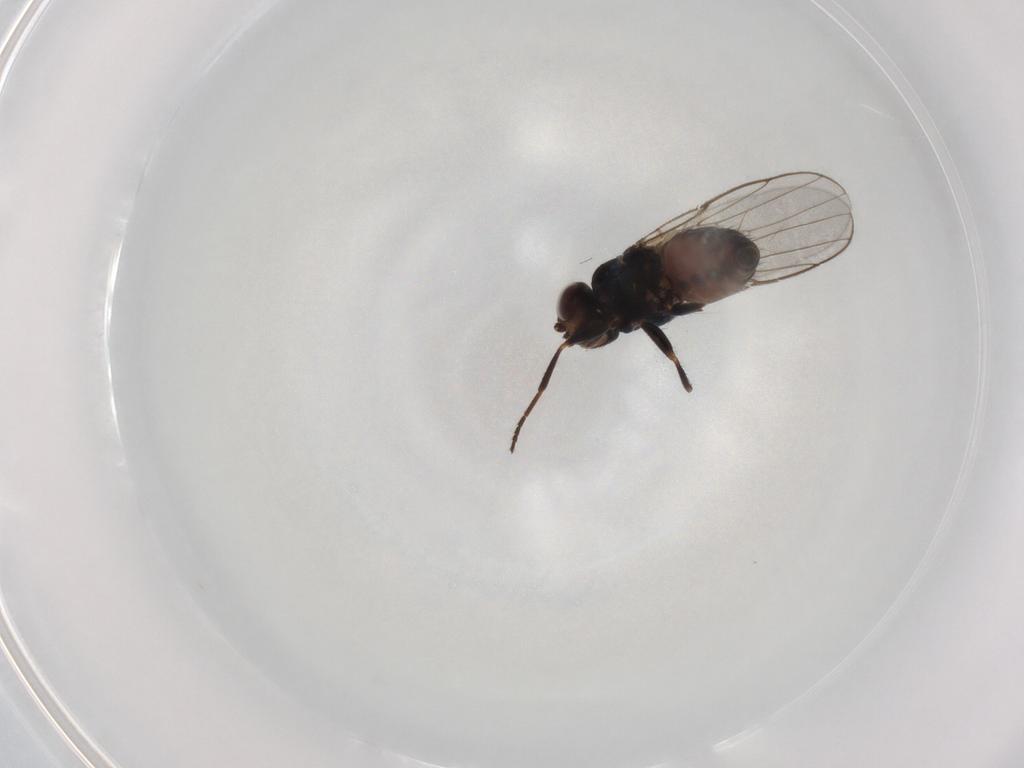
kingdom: Animalia
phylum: Arthropoda
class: Insecta
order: Diptera
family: Chloropidae
